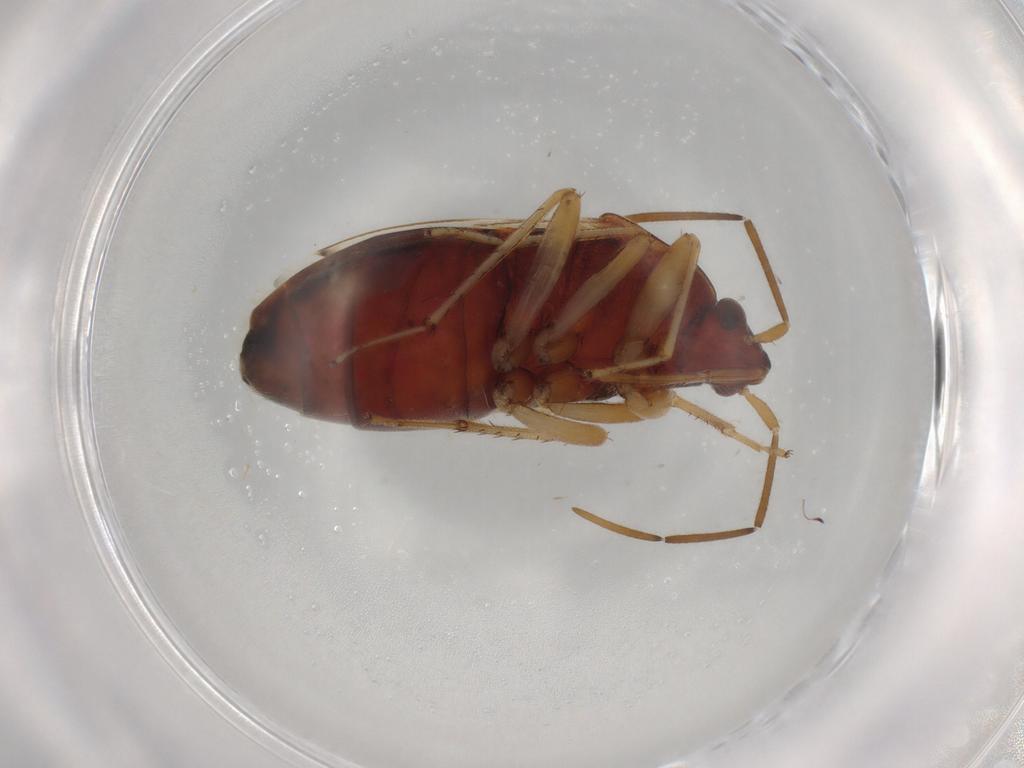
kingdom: Animalia
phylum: Arthropoda
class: Insecta
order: Hemiptera
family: Rhyparochromidae
